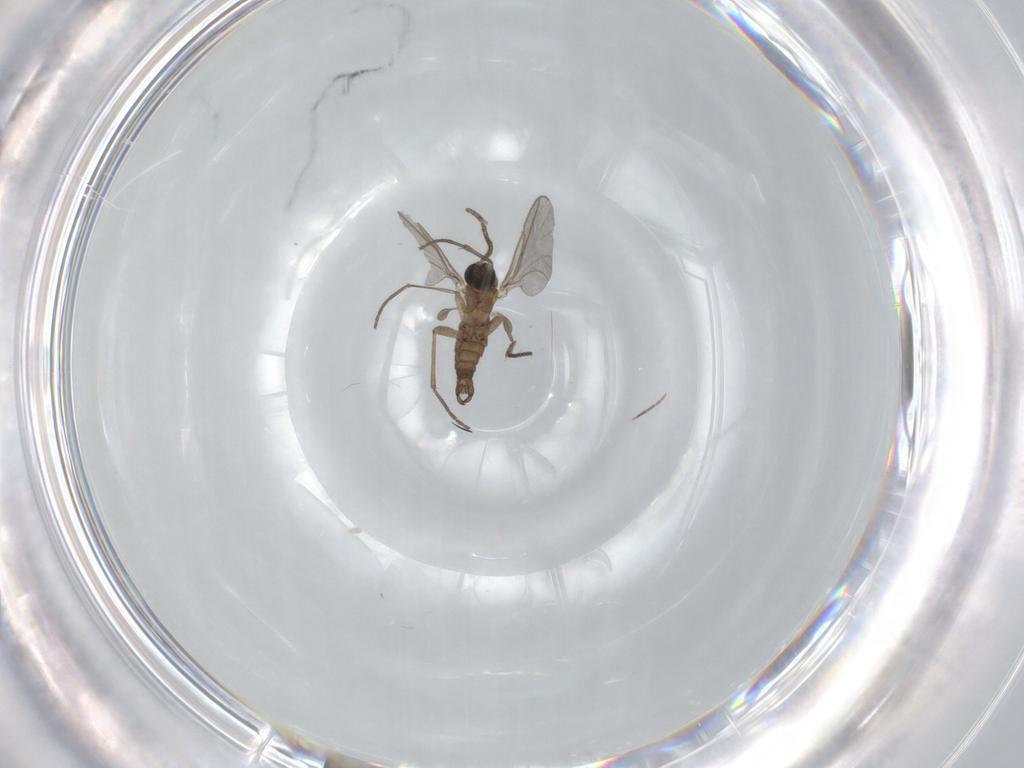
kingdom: Animalia
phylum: Arthropoda
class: Insecta
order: Diptera
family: Sciaridae
